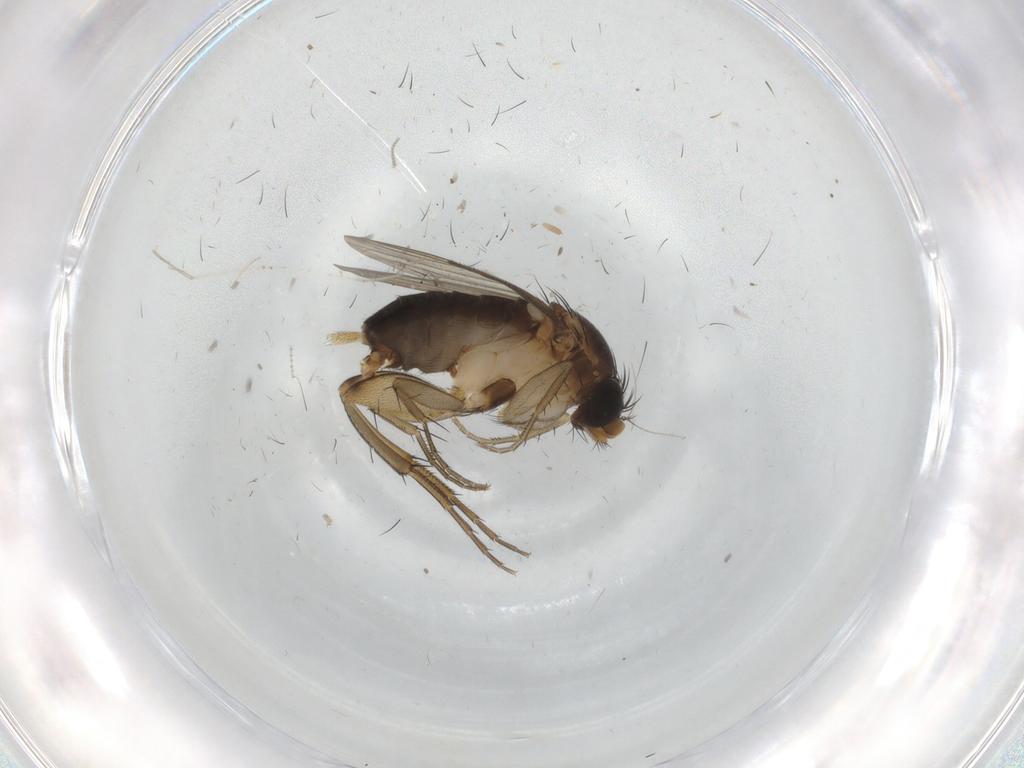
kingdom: Animalia
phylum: Arthropoda
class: Insecta
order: Diptera
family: Phoridae
